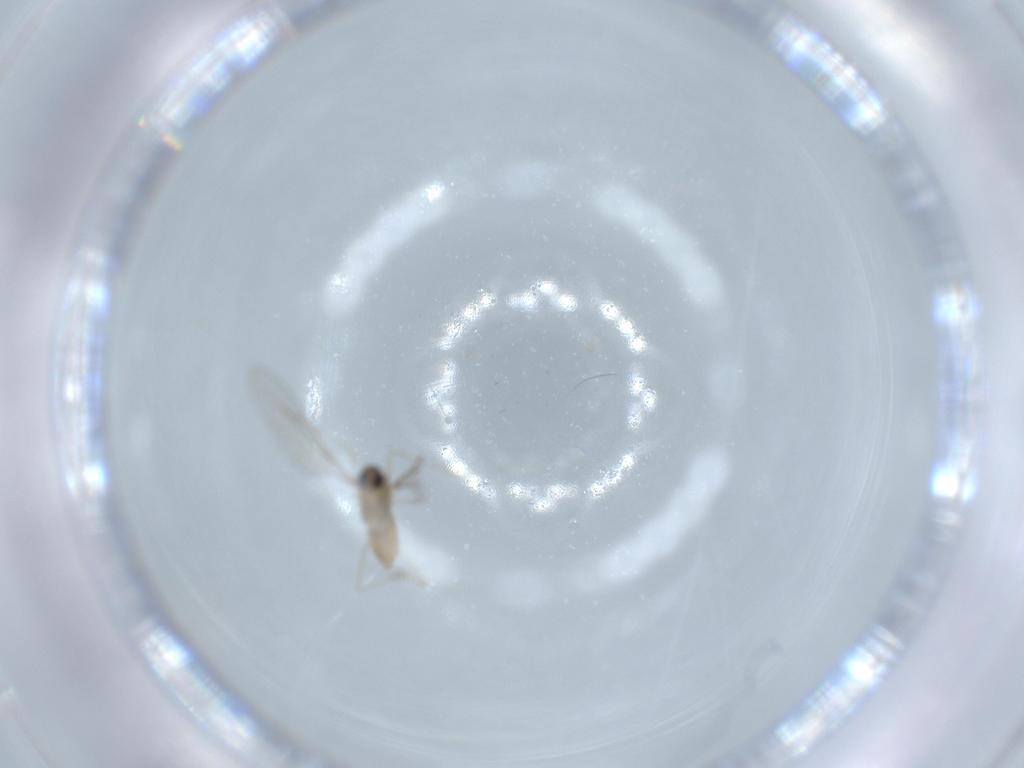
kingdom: Animalia
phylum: Arthropoda
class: Insecta
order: Diptera
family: Cecidomyiidae
